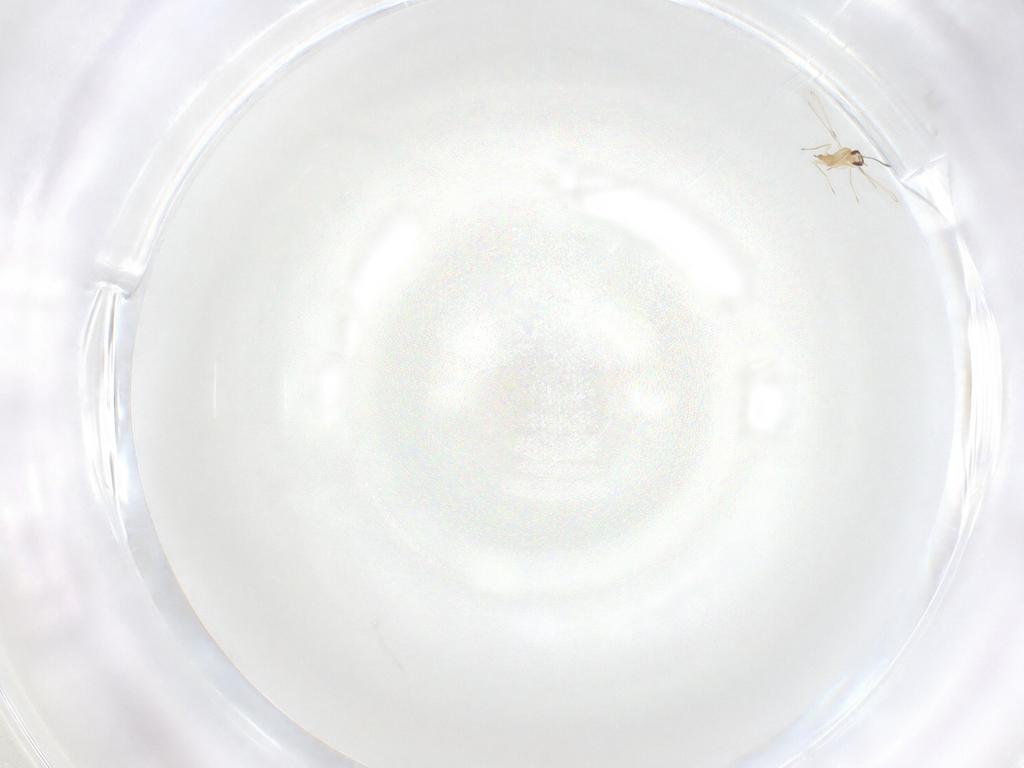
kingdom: Animalia
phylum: Arthropoda
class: Insecta
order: Hymenoptera
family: Mymaridae
